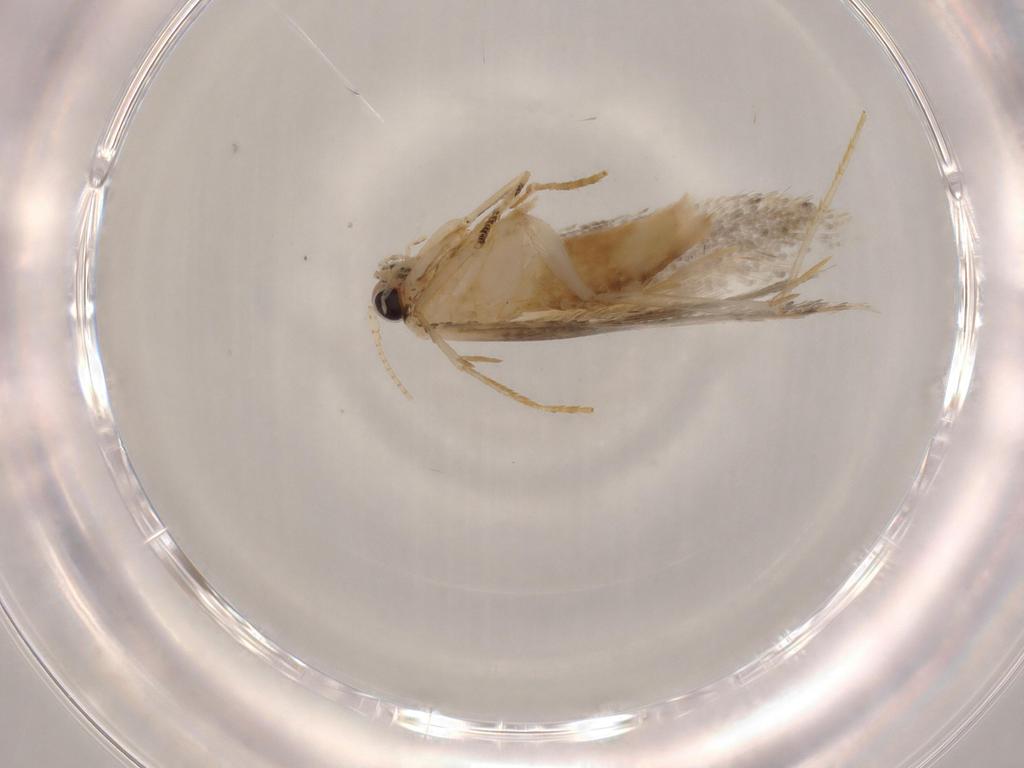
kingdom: Animalia
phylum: Arthropoda
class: Insecta
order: Lepidoptera
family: Tineidae
